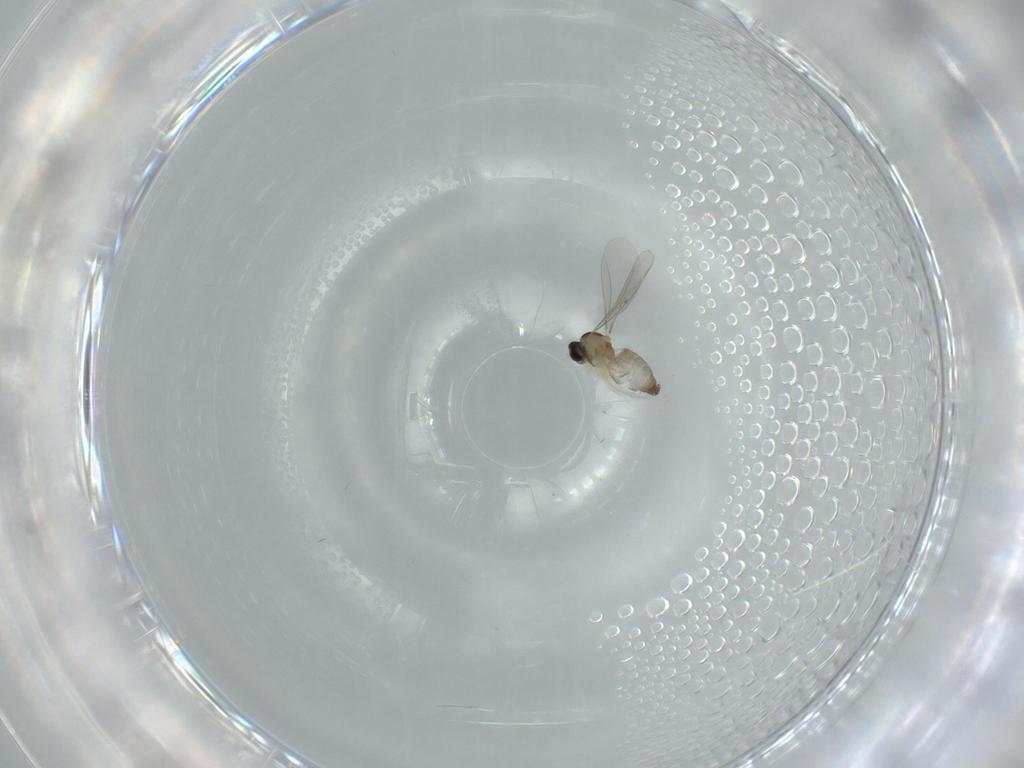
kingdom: Animalia
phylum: Arthropoda
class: Insecta
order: Diptera
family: Cecidomyiidae
